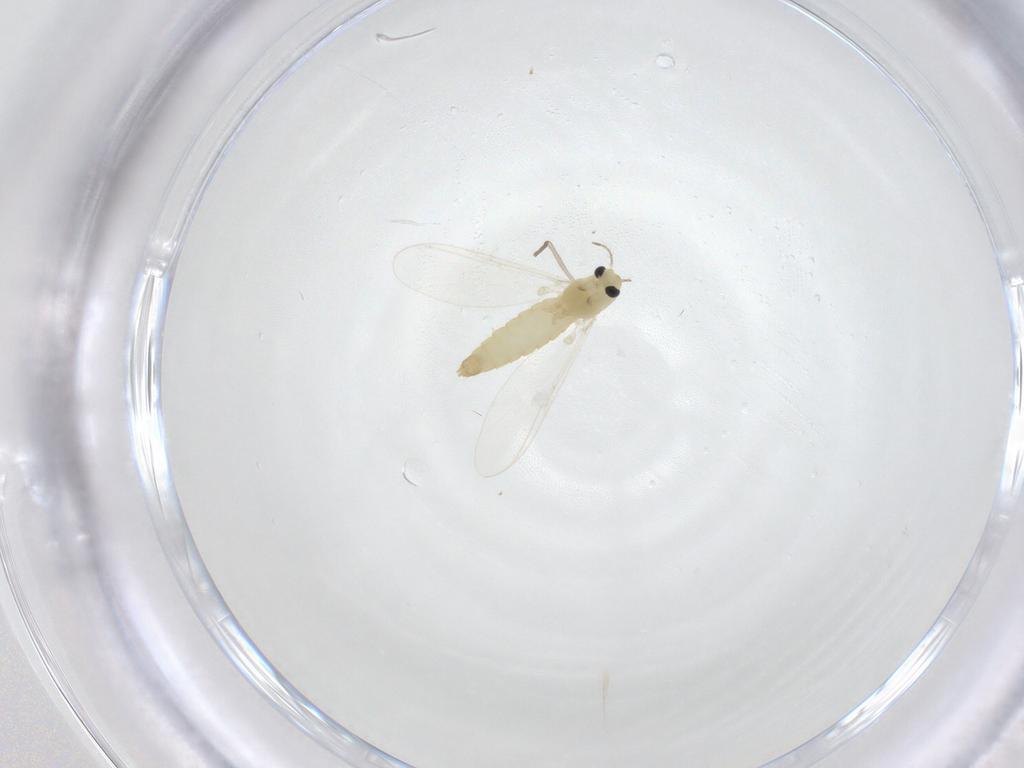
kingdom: Animalia
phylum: Arthropoda
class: Insecta
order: Diptera
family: Chironomidae
